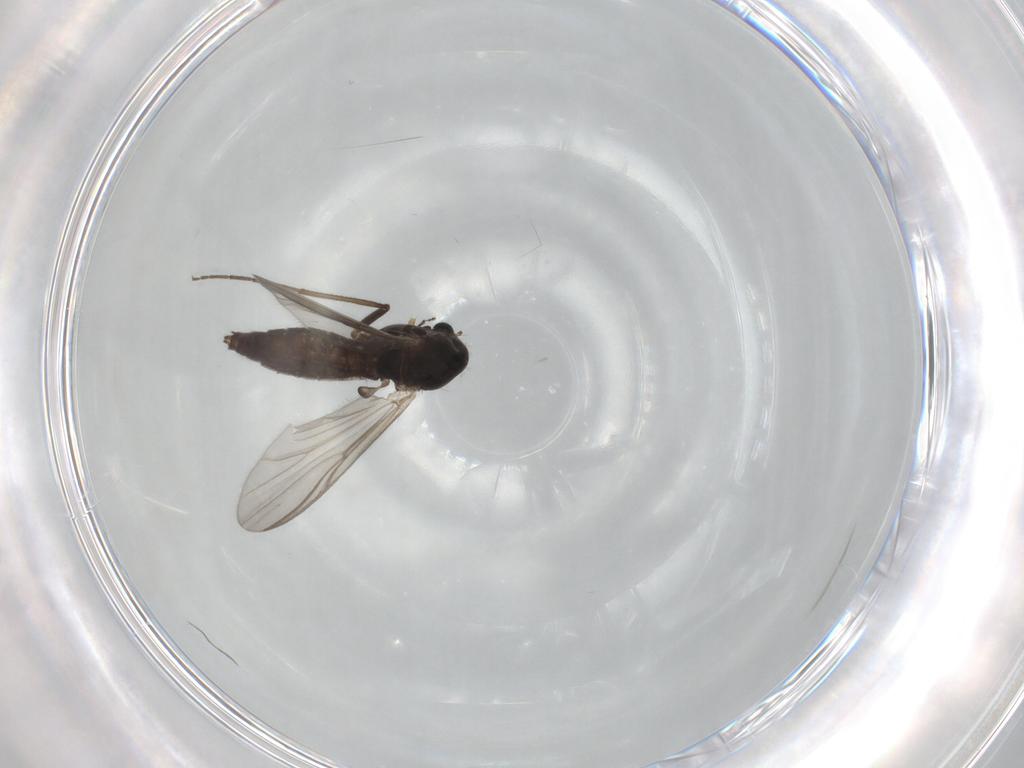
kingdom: Animalia
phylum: Arthropoda
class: Insecta
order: Diptera
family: Chironomidae
